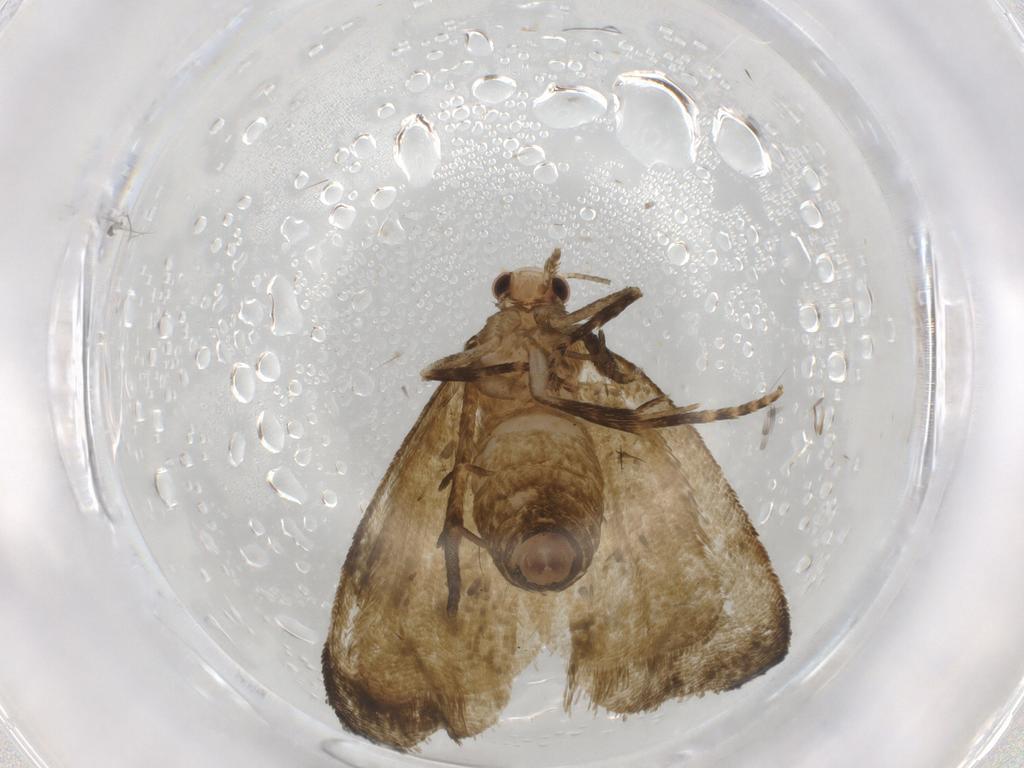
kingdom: Animalia
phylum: Arthropoda
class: Insecta
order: Lepidoptera
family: Tortricidae
